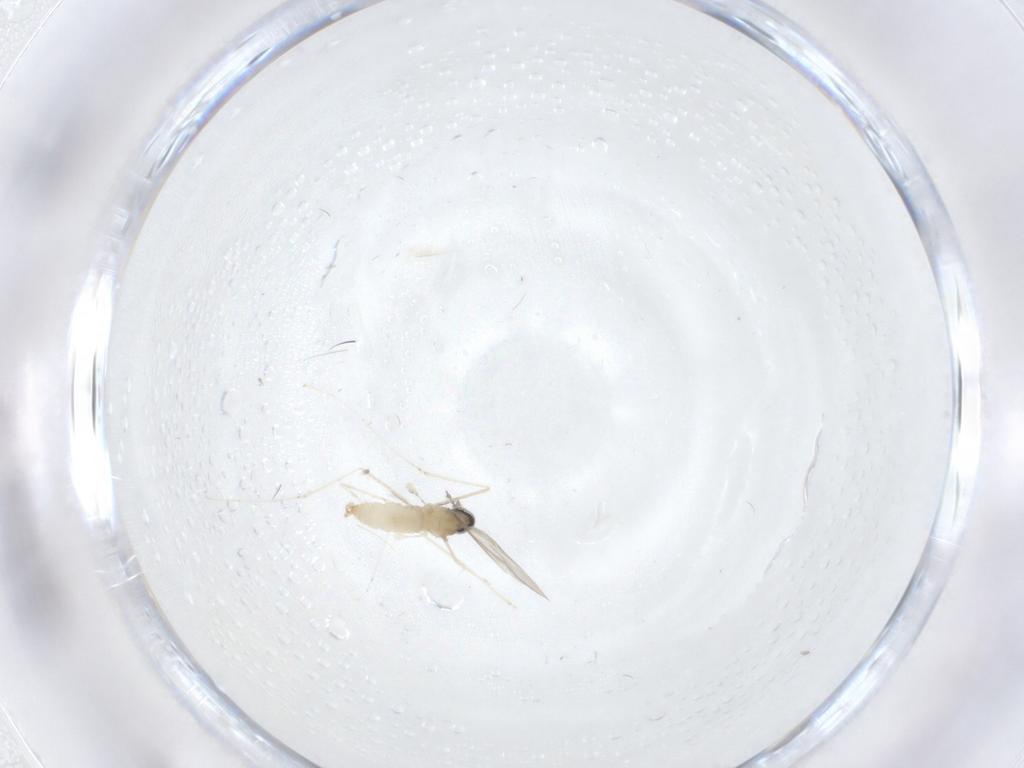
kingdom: Animalia
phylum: Arthropoda
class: Insecta
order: Diptera
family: Cecidomyiidae
